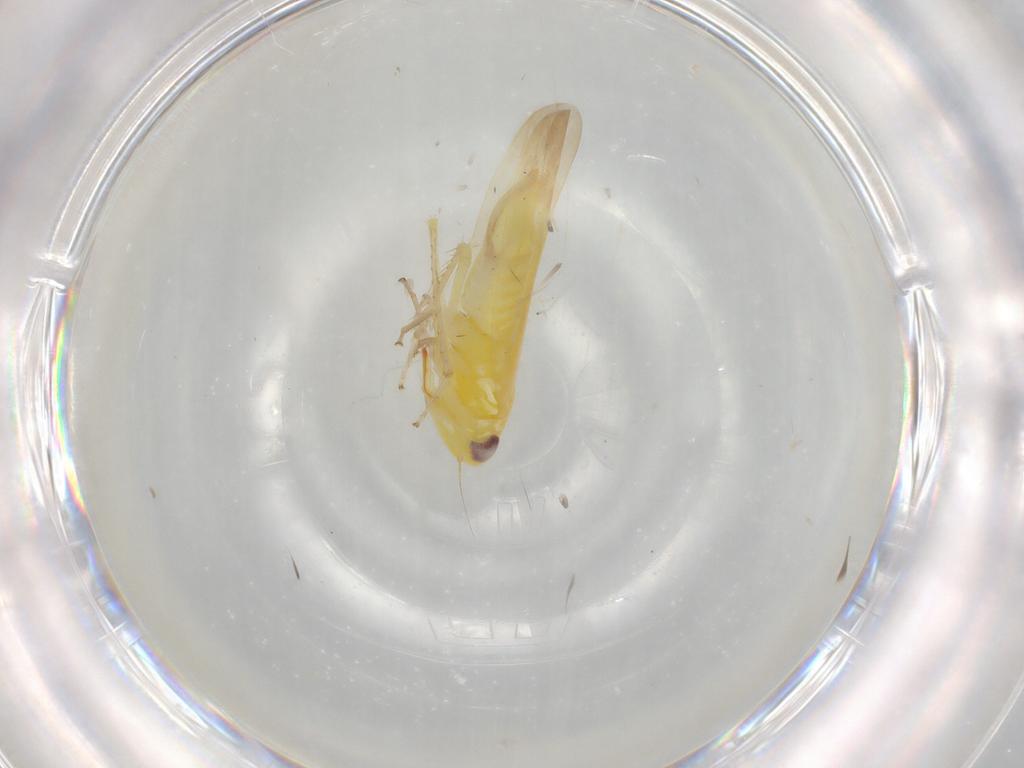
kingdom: Animalia
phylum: Arthropoda
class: Insecta
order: Hemiptera
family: Cicadellidae
